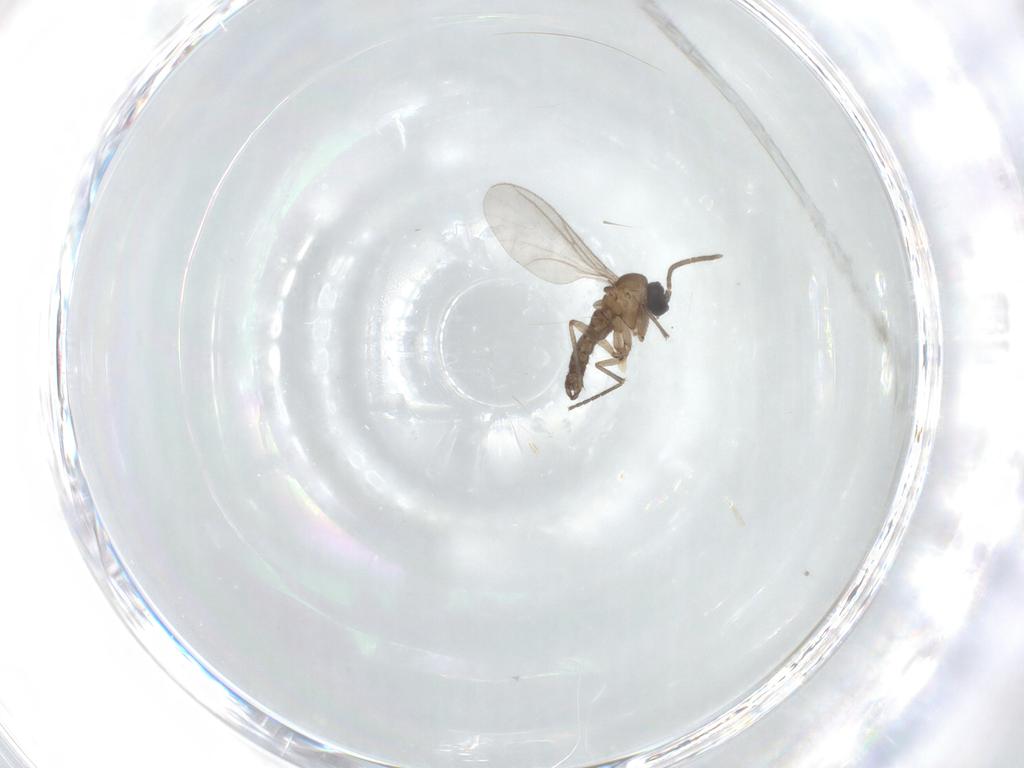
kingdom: Animalia
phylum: Arthropoda
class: Insecta
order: Diptera
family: Sciaridae
